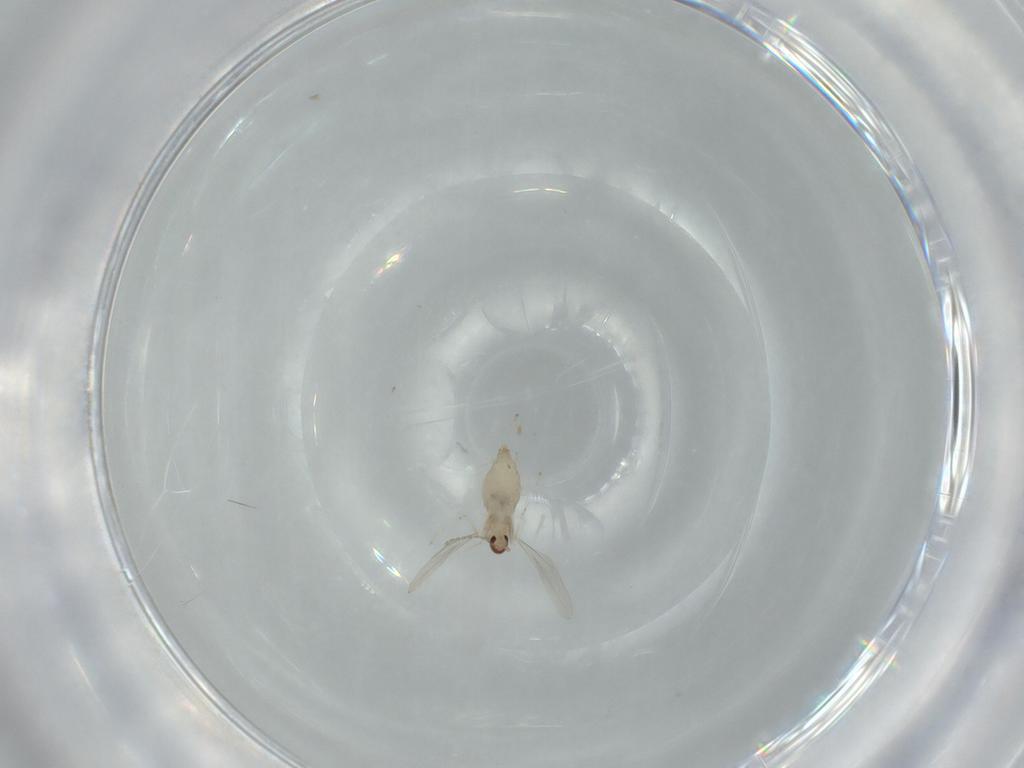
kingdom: Animalia
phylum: Arthropoda
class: Insecta
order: Diptera
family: Cecidomyiidae
